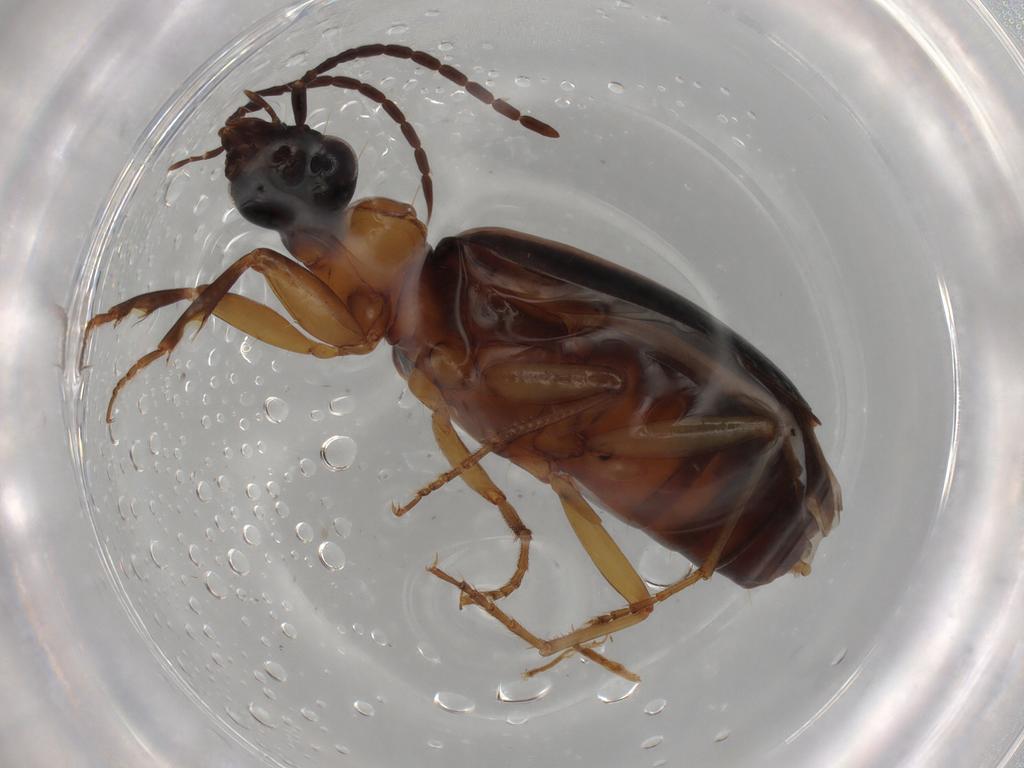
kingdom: Animalia
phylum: Arthropoda
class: Insecta
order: Coleoptera
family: Carabidae
